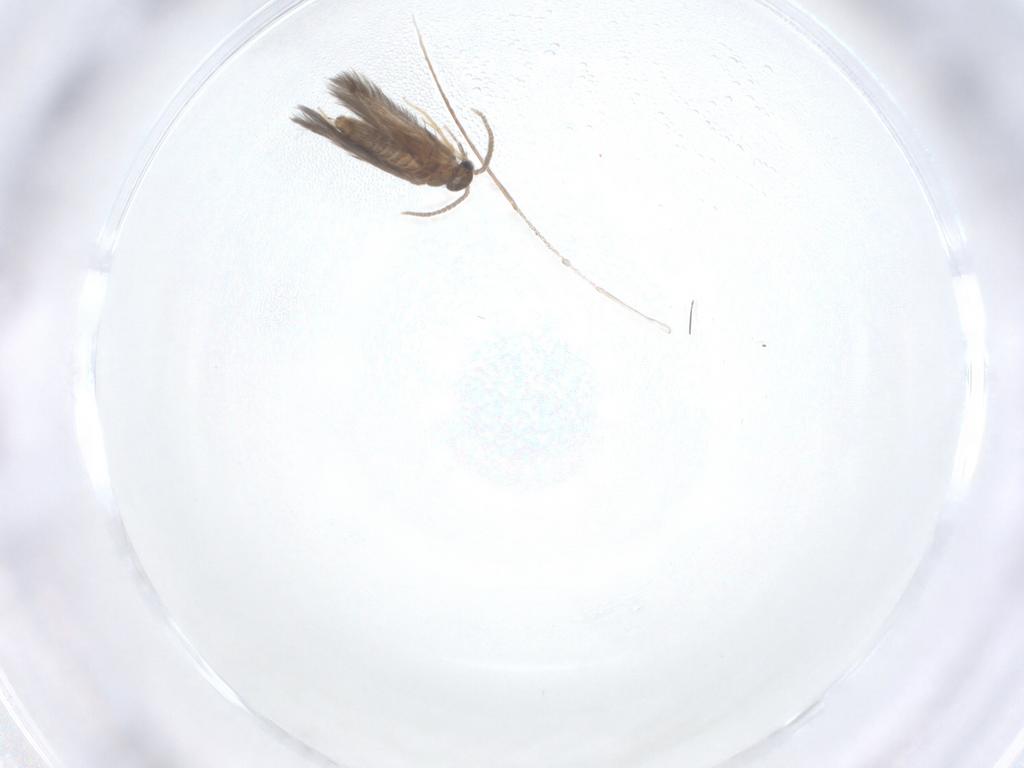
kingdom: Animalia
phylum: Arthropoda
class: Insecta
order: Trichoptera
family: Hydroptilidae
